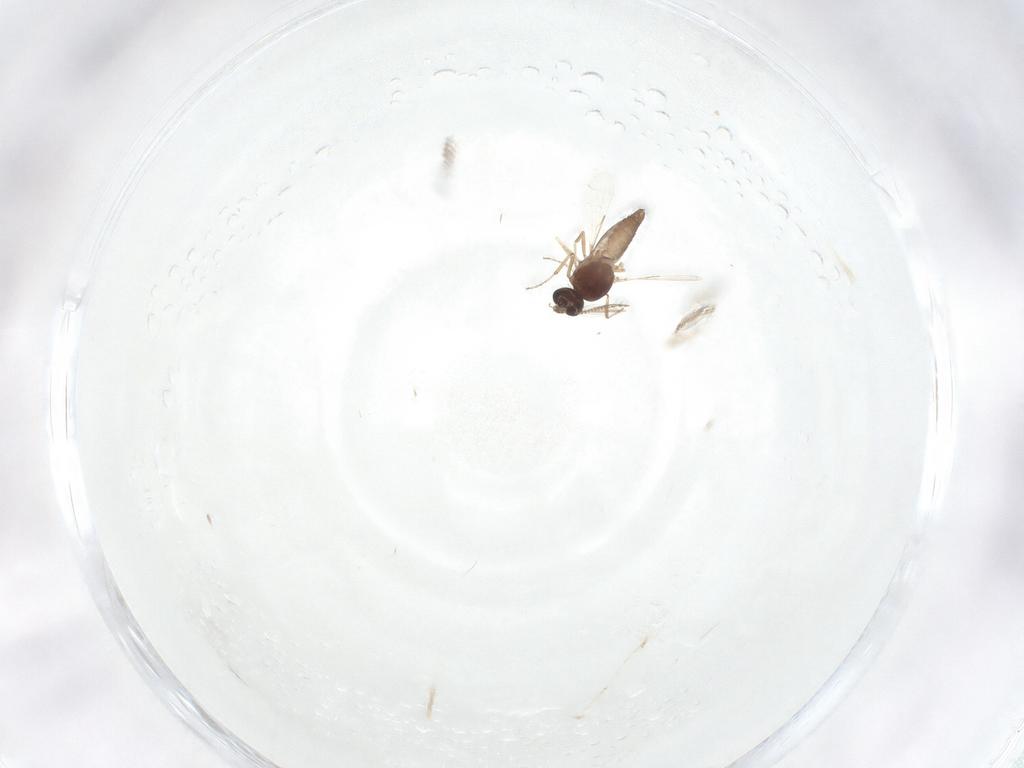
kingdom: Animalia
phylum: Arthropoda
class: Insecta
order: Diptera
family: Ceratopogonidae
